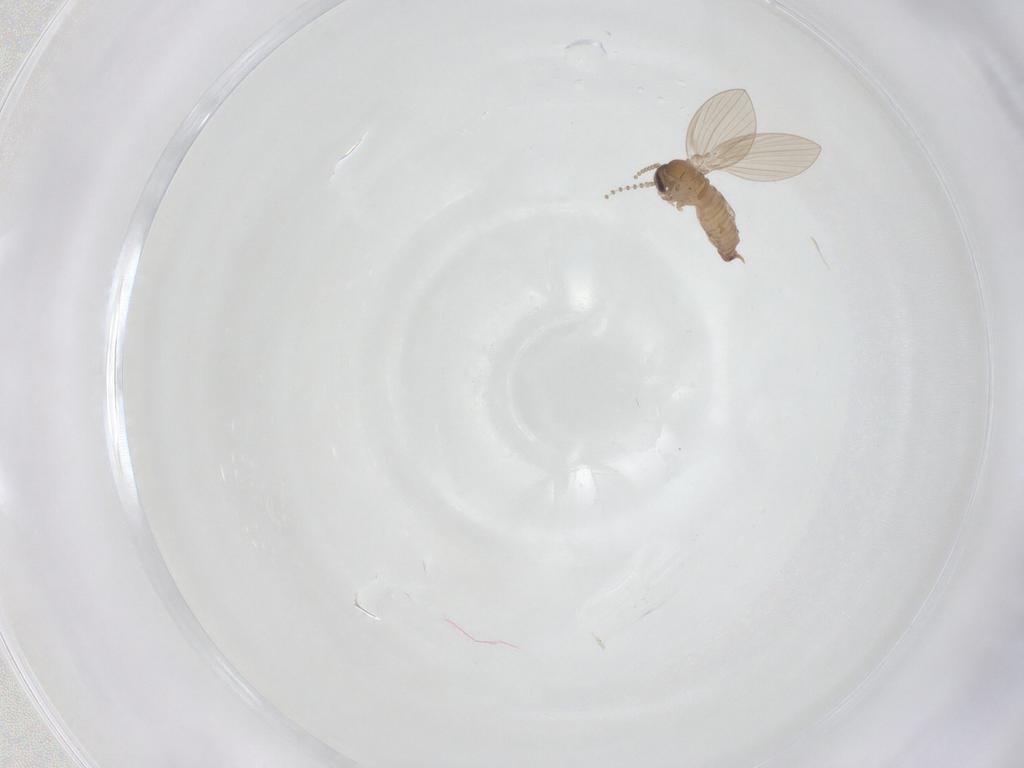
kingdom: Animalia
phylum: Arthropoda
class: Insecta
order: Diptera
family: Psychodidae
